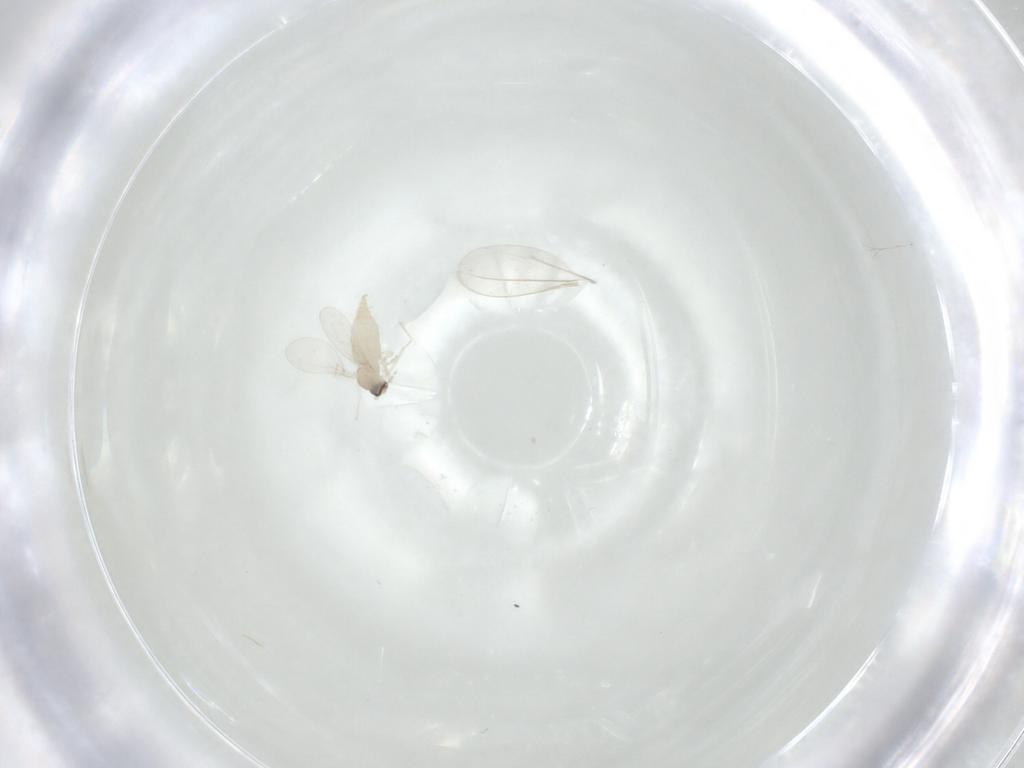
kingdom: Animalia
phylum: Arthropoda
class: Insecta
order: Diptera
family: Cecidomyiidae
